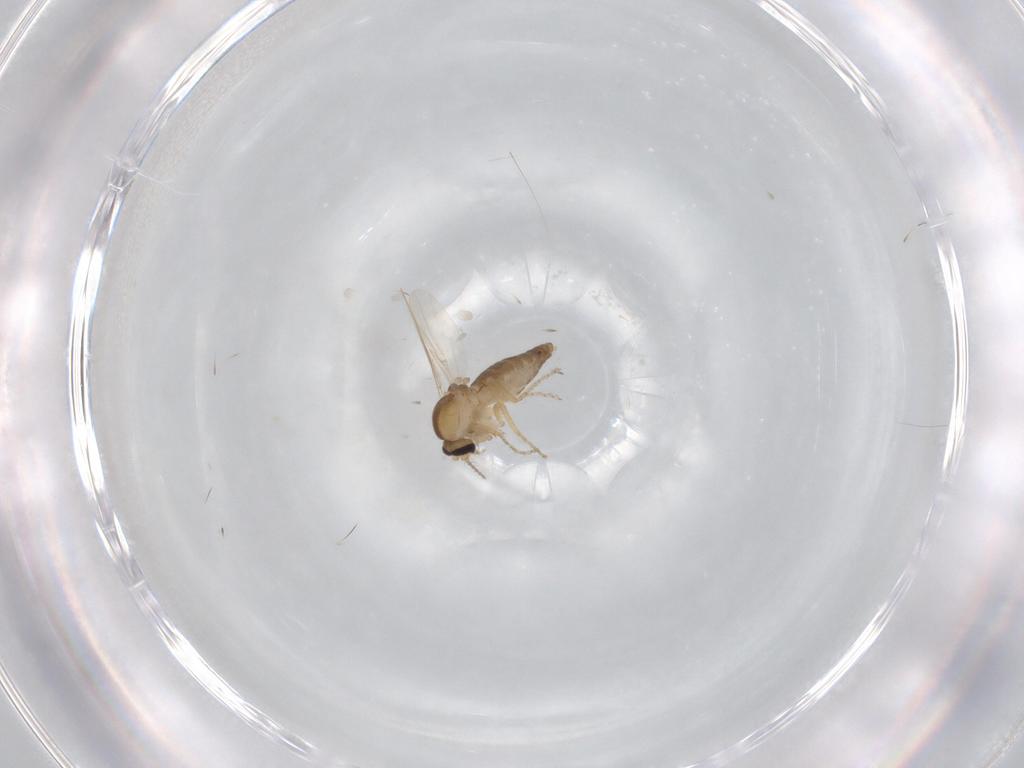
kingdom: Animalia
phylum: Arthropoda
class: Insecta
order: Diptera
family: Ceratopogonidae
